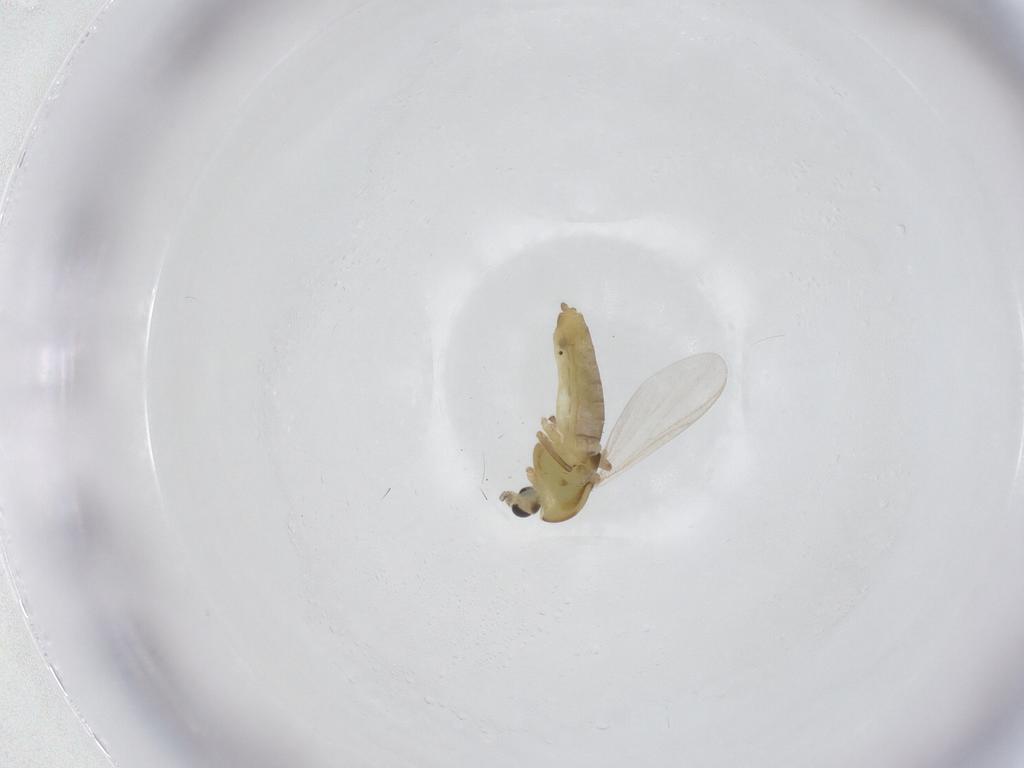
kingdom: Animalia
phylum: Arthropoda
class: Insecta
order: Diptera
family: Chironomidae
